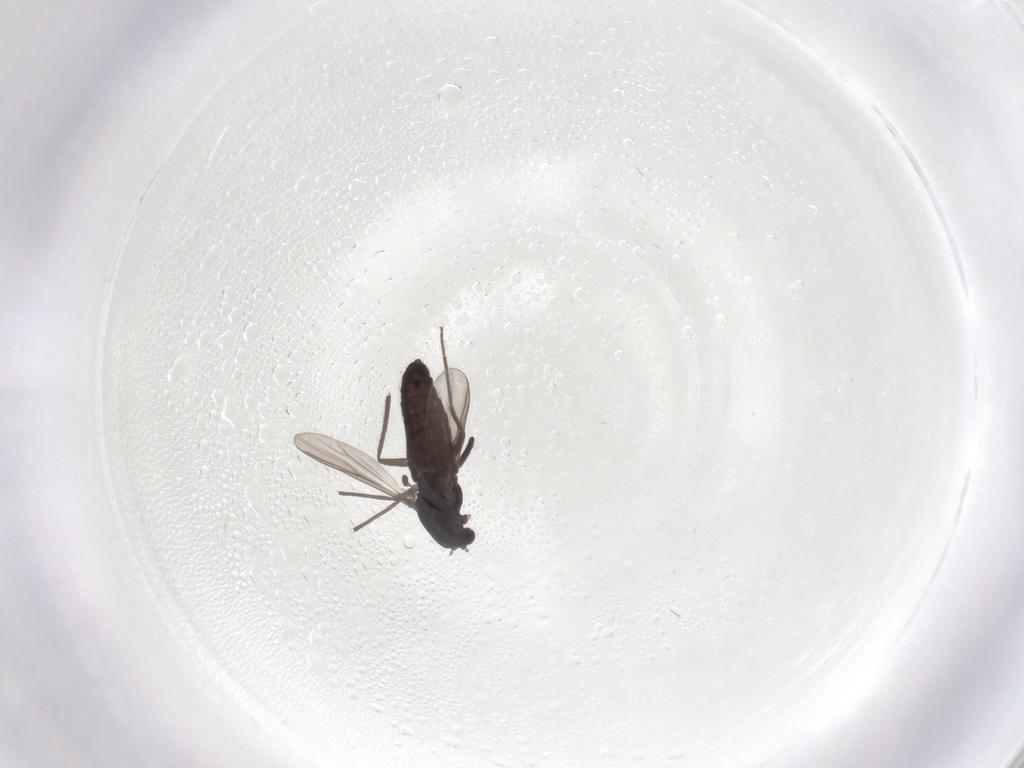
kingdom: Animalia
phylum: Arthropoda
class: Insecta
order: Diptera
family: Chironomidae
